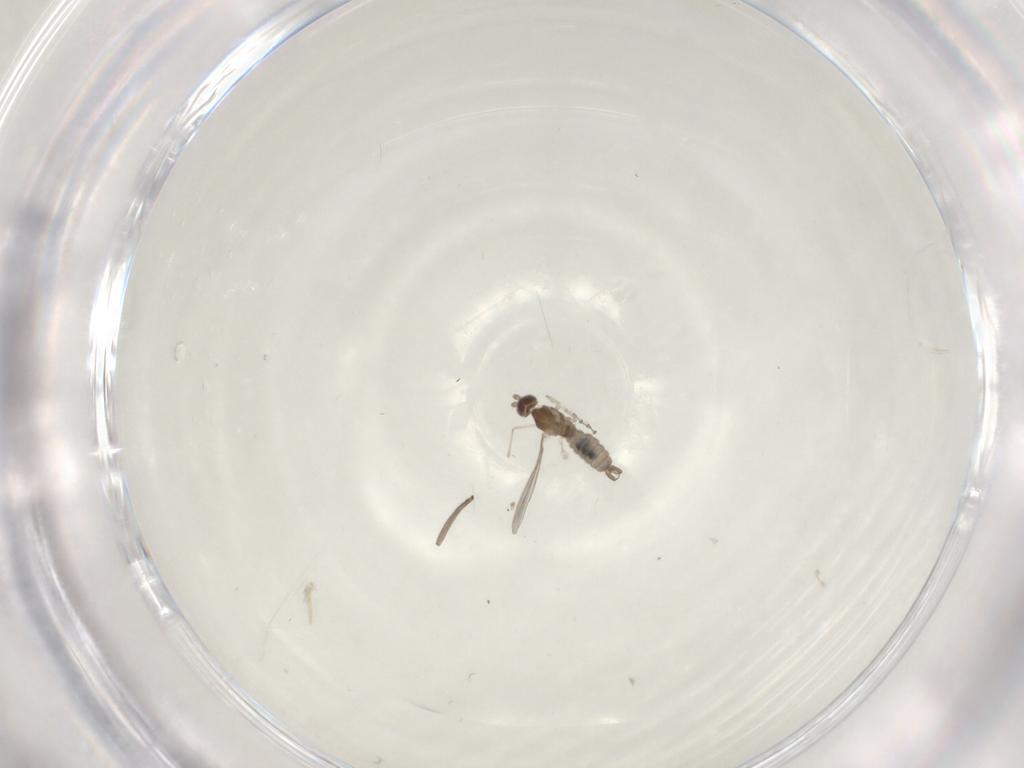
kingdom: Animalia
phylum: Arthropoda
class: Insecta
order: Diptera
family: Cecidomyiidae
